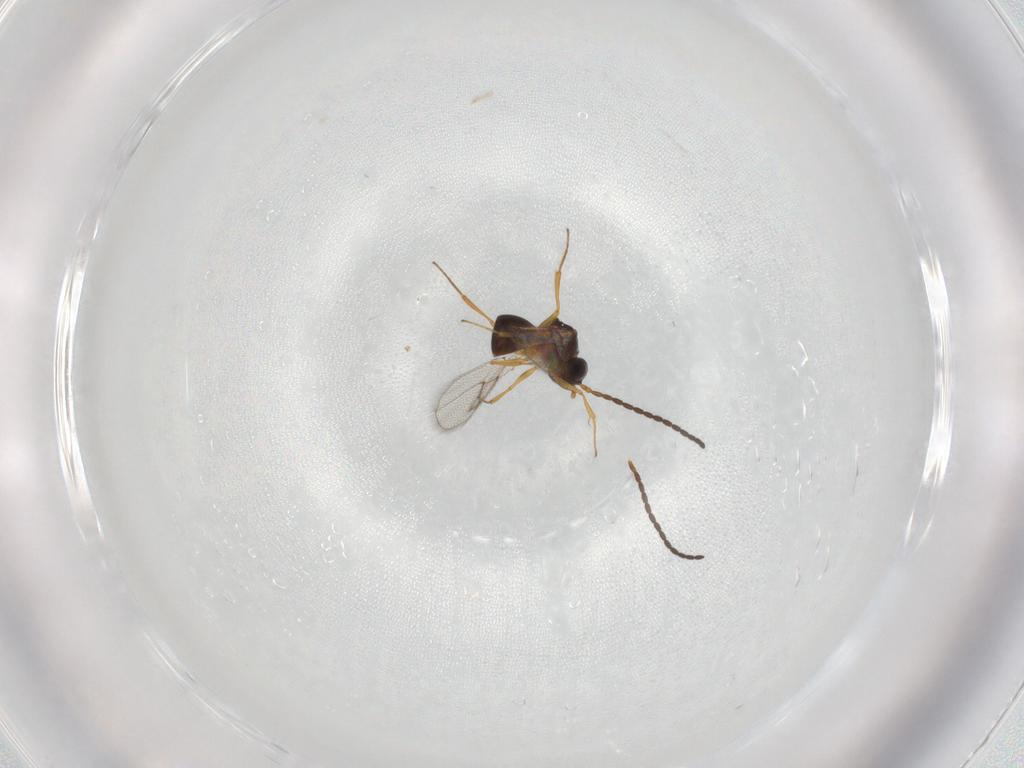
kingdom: Animalia
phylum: Arthropoda
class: Insecta
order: Hymenoptera
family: Figitidae
